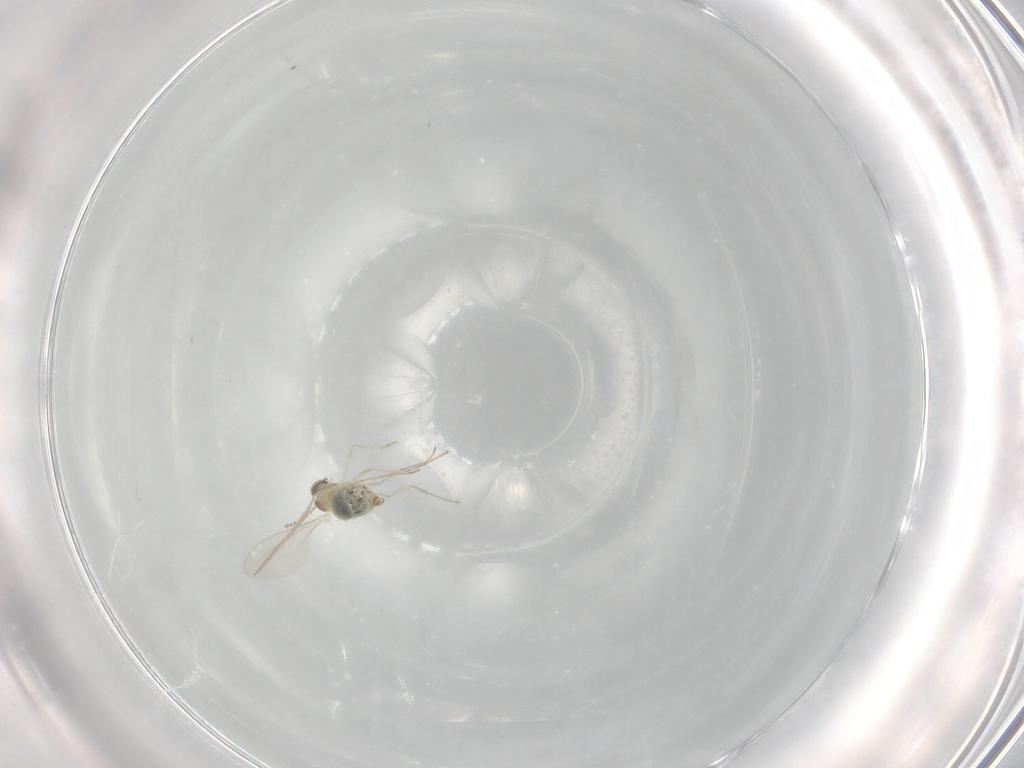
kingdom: Animalia
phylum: Arthropoda
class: Insecta
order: Diptera
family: Cecidomyiidae
